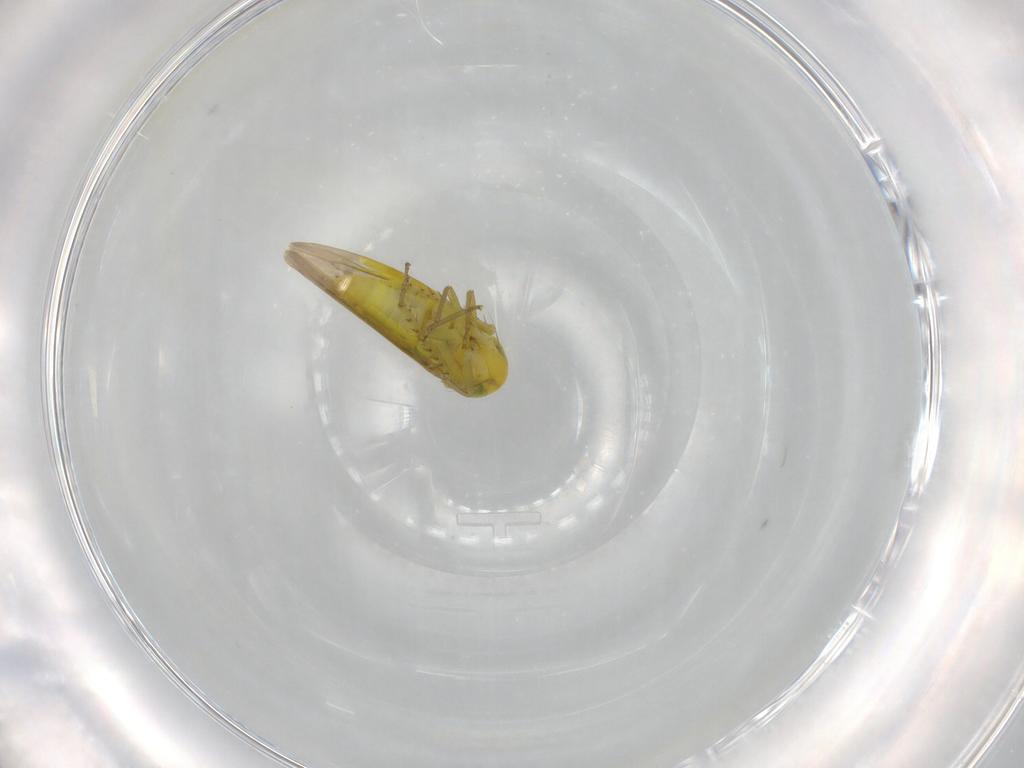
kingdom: Animalia
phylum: Arthropoda
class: Insecta
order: Hemiptera
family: Cicadellidae
